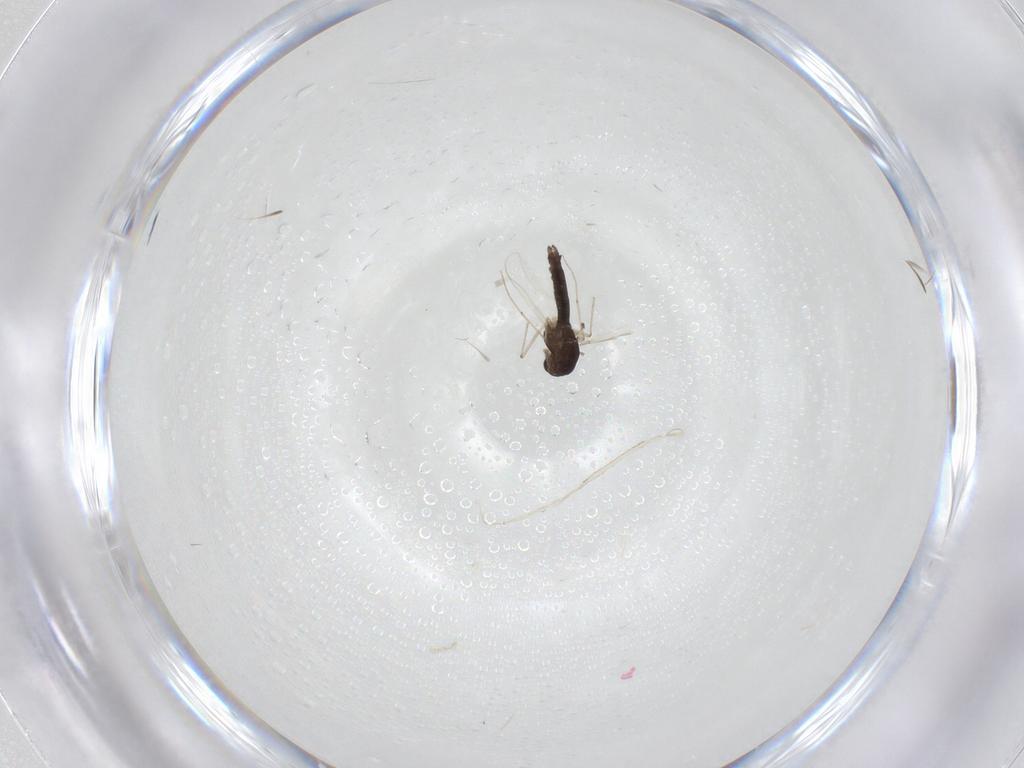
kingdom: Animalia
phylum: Arthropoda
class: Insecta
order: Diptera
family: Chironomidae
